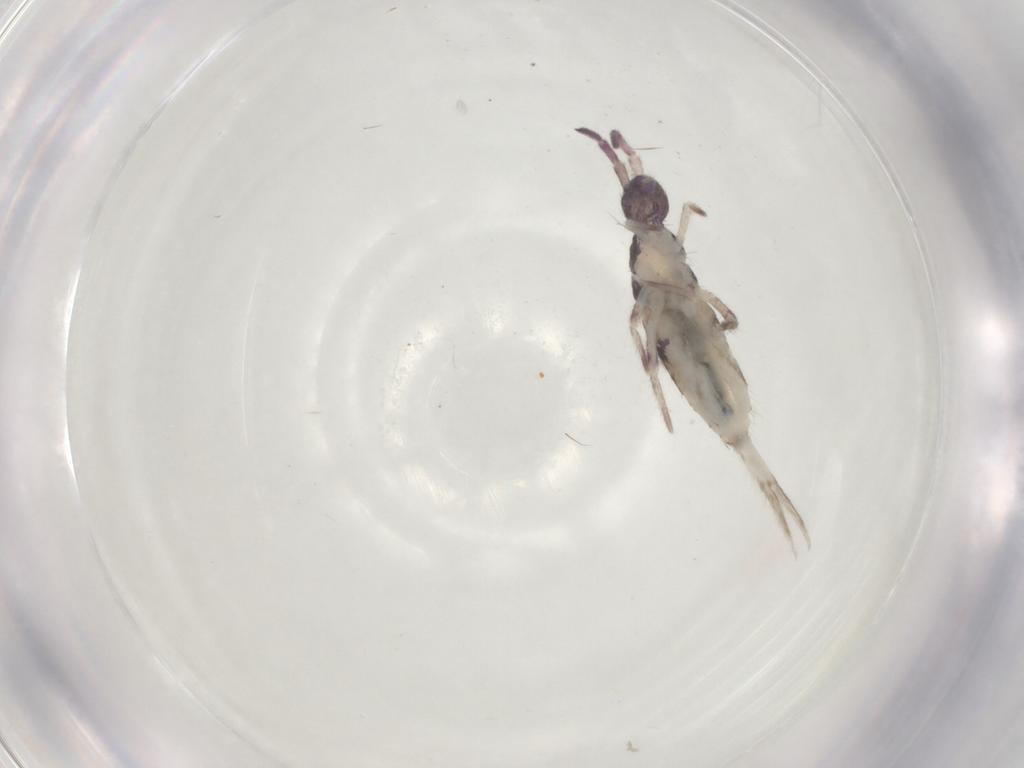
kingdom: Animalia
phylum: Arthropoda
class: Collembola
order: Entomobryomorpha
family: Entomobryidae
